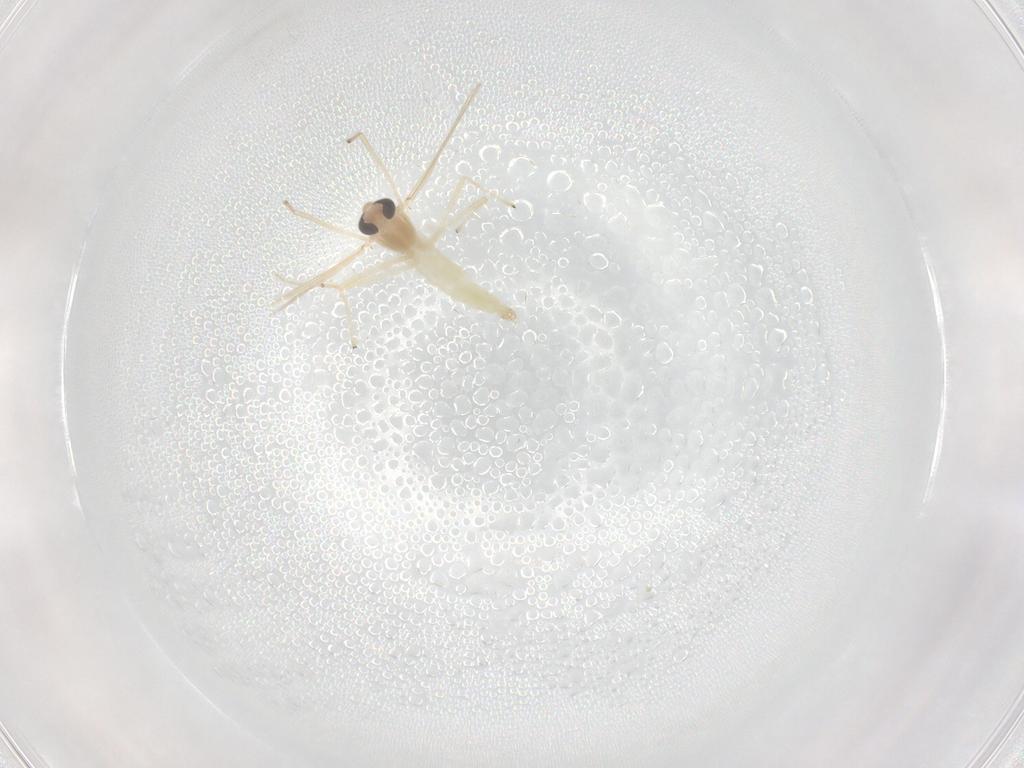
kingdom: Animalia
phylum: Arthropoda
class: Insecta
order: Diptera
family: Chironomidae
